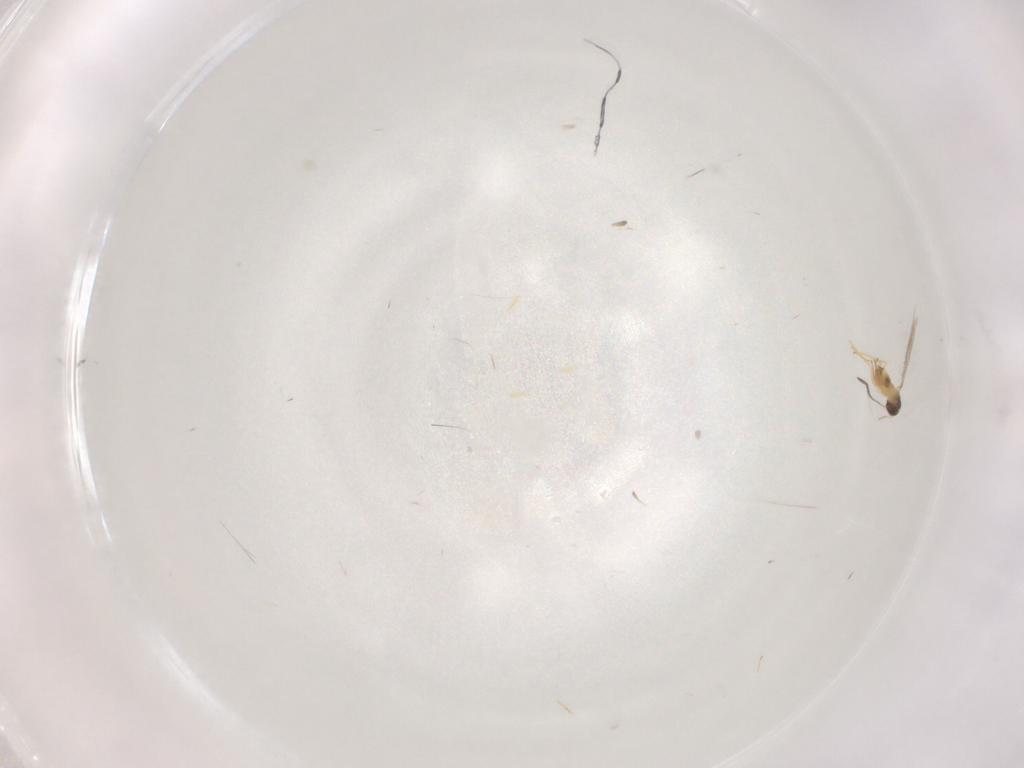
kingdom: Animalia
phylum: Arthropoda
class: Insecta
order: Hymenoptera
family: Mymaridae
